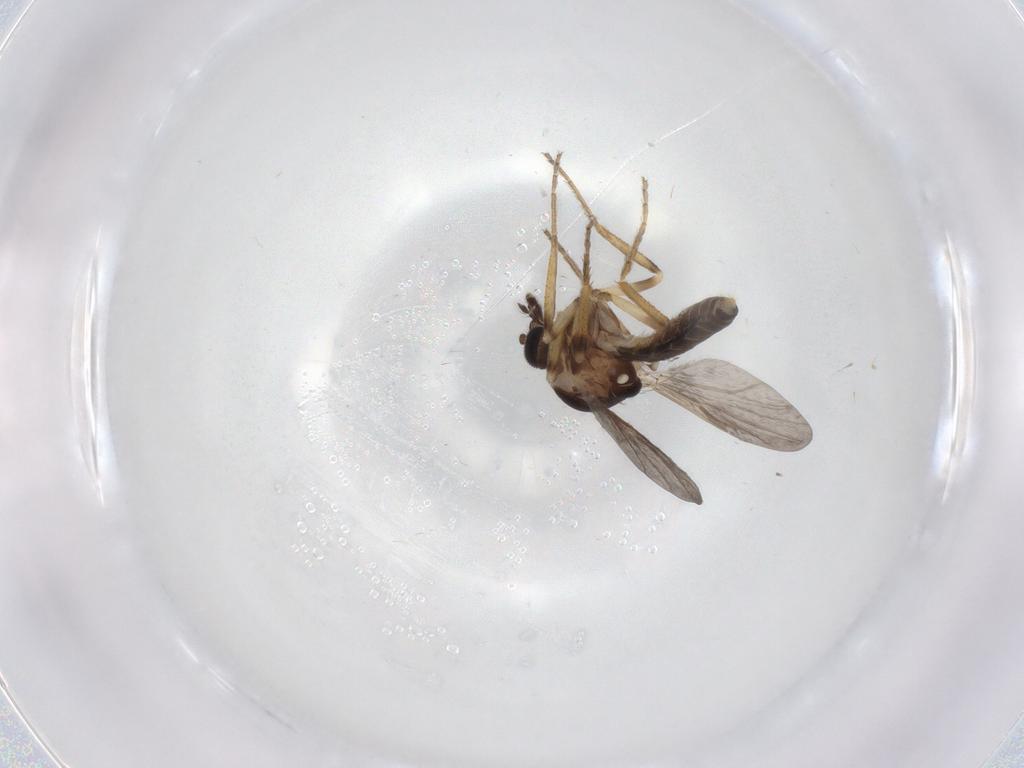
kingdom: Animalia
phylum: Arthropoda
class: Insecta
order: Diptera
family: Ceratopogonidae
